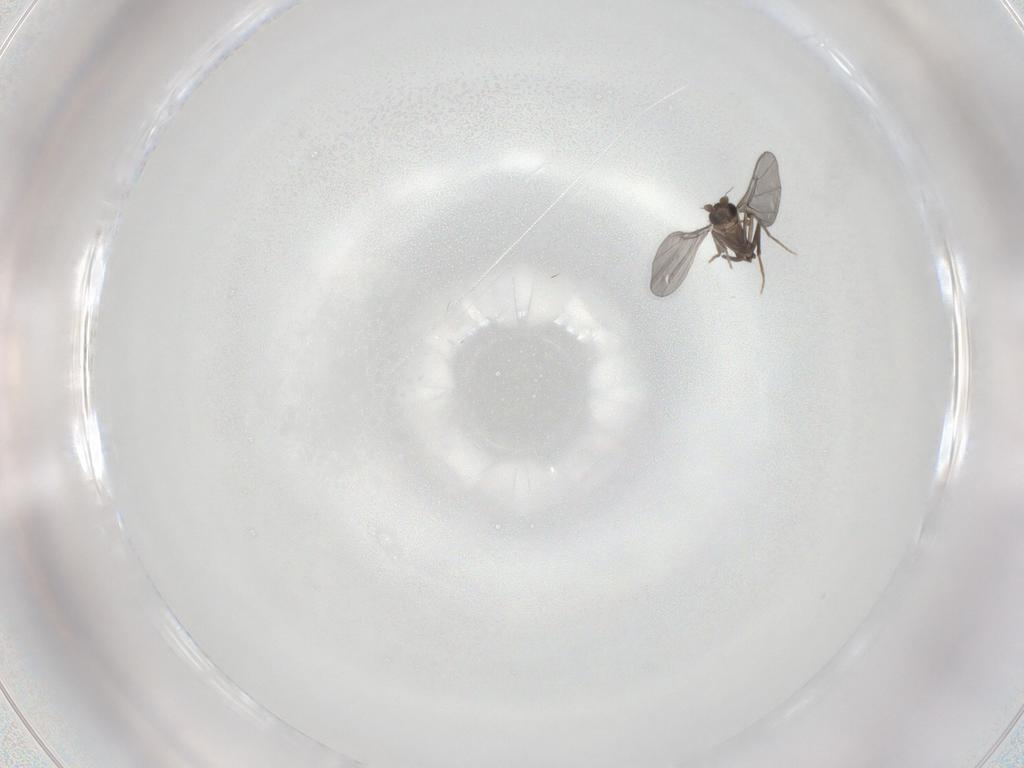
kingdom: Animalia
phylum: Arthropoda
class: Insecta
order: Diptera
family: Phoridae
